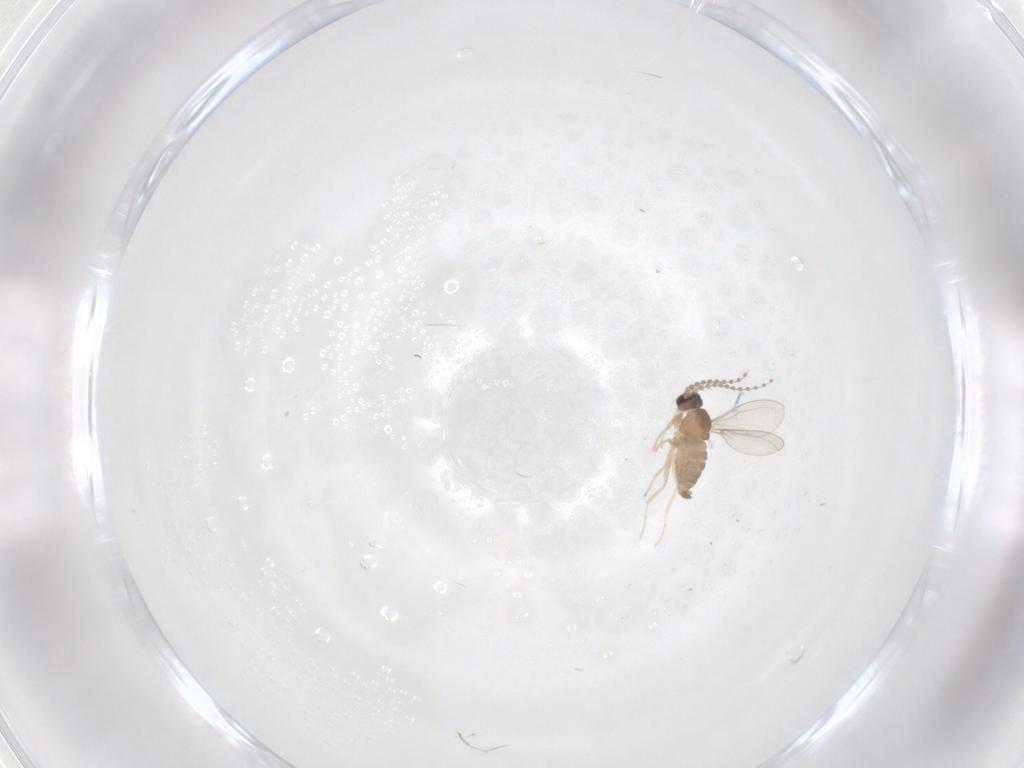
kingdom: Animalia
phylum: Arthropoda
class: Insecta
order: Diptera
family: Cecidomyiidae
